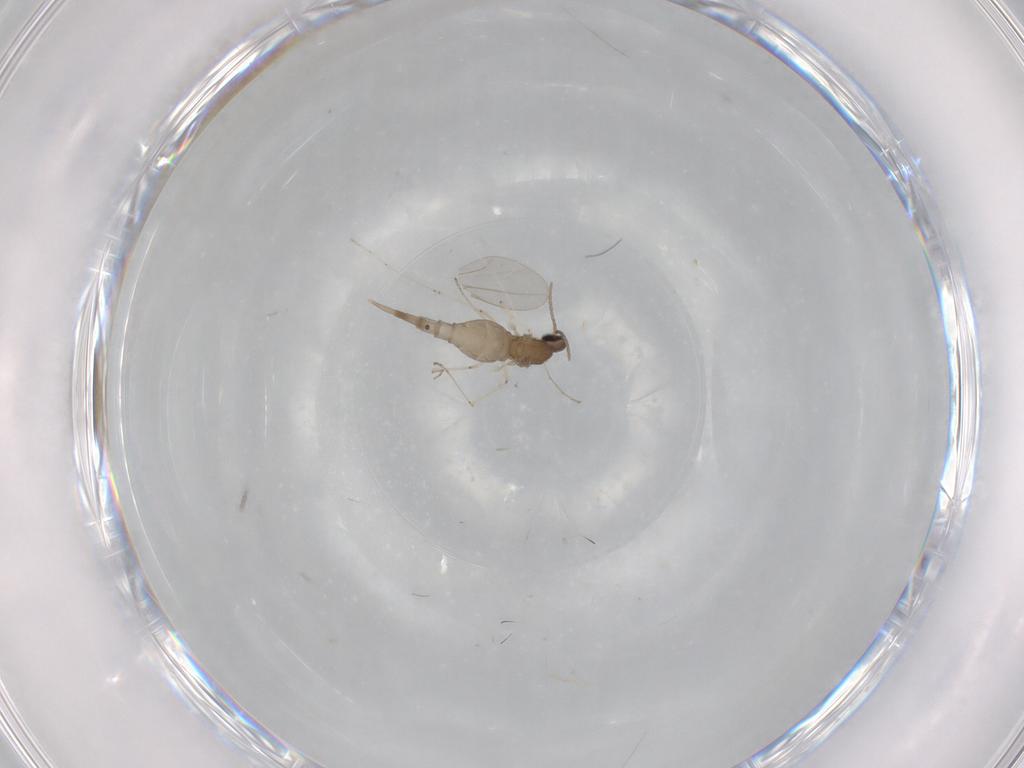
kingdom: Animalia
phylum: Arthropoda
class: Insecta
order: Diptera
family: Cecidomyiidae
